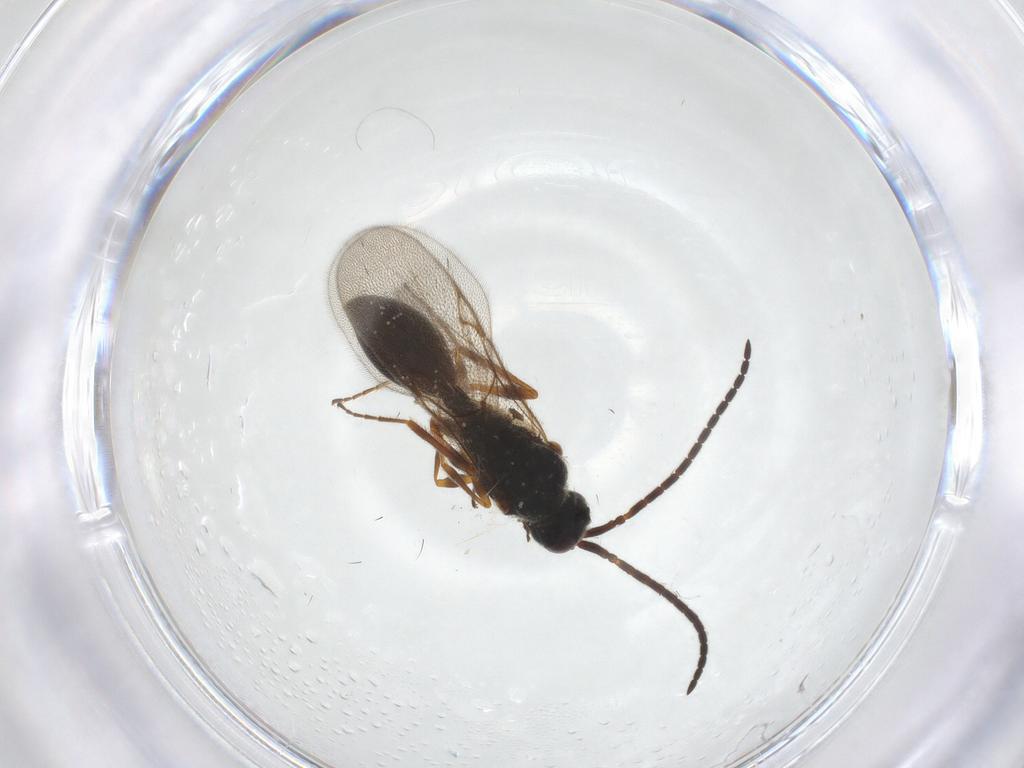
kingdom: Animalia
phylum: Arthropoda
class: Insecta
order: Hymenoptera
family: Diapriidae
